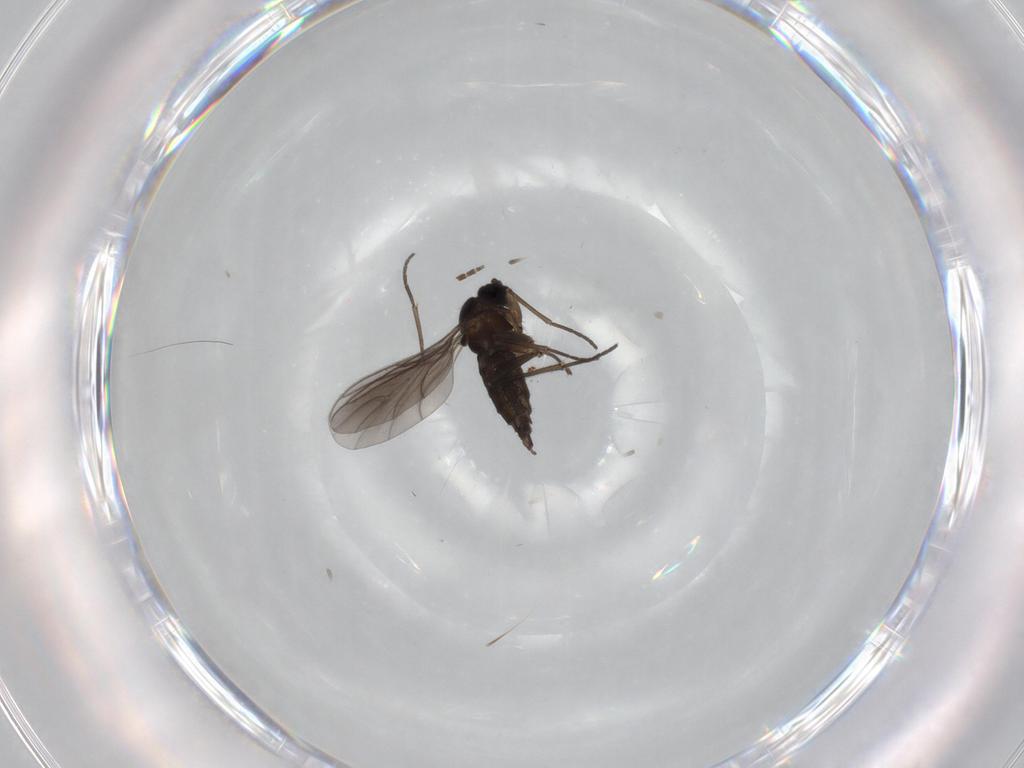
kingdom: Animalia
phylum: Arthropoda
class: Insecta
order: Diptera
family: Sciaridae
